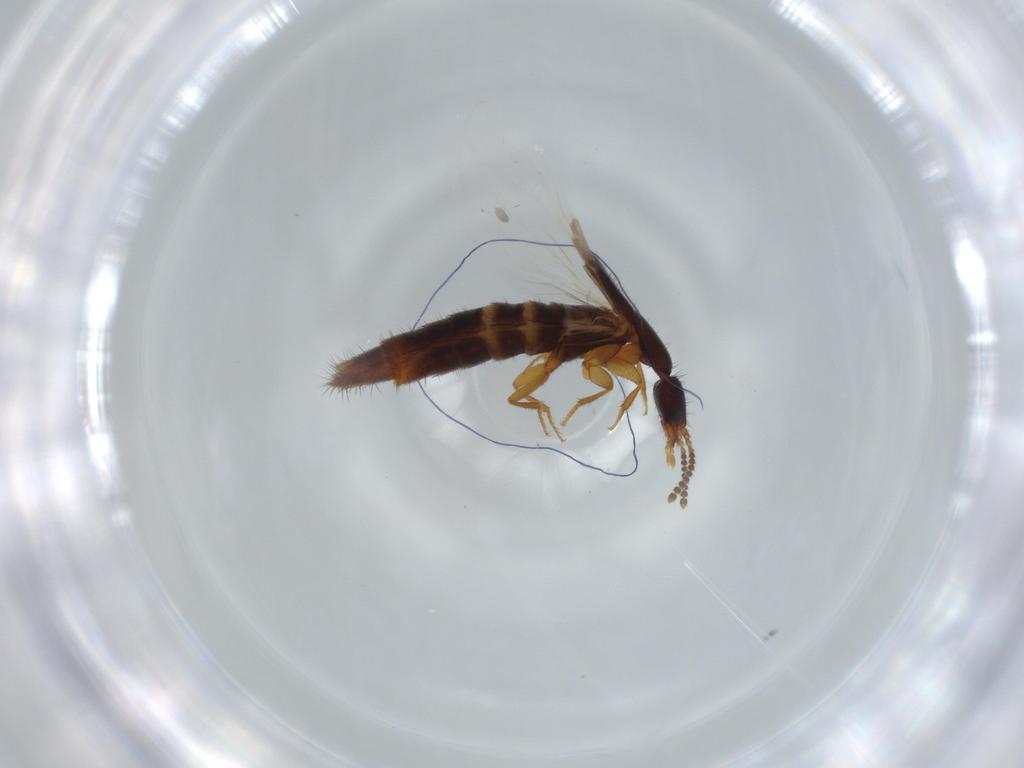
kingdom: Animalia
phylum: Arthropoda
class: Insecta
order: Coleoptera
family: Staphylinidae
